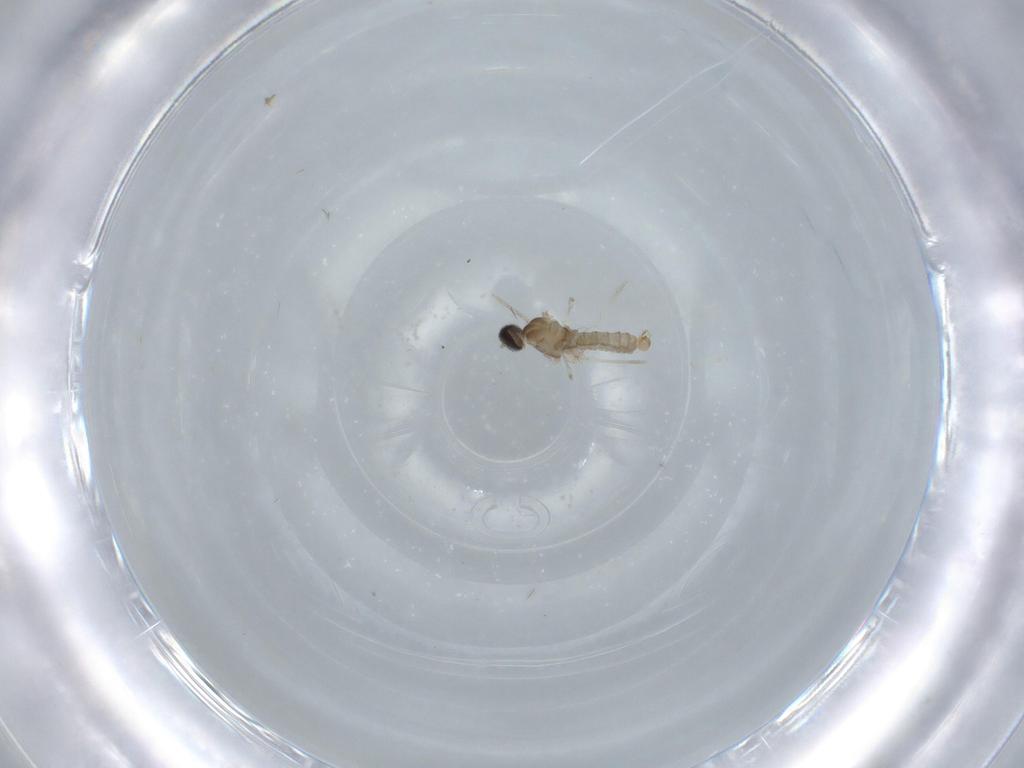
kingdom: Animalia
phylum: Arthropoda
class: Insecta
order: Diptera
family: Cecidomyiidae
